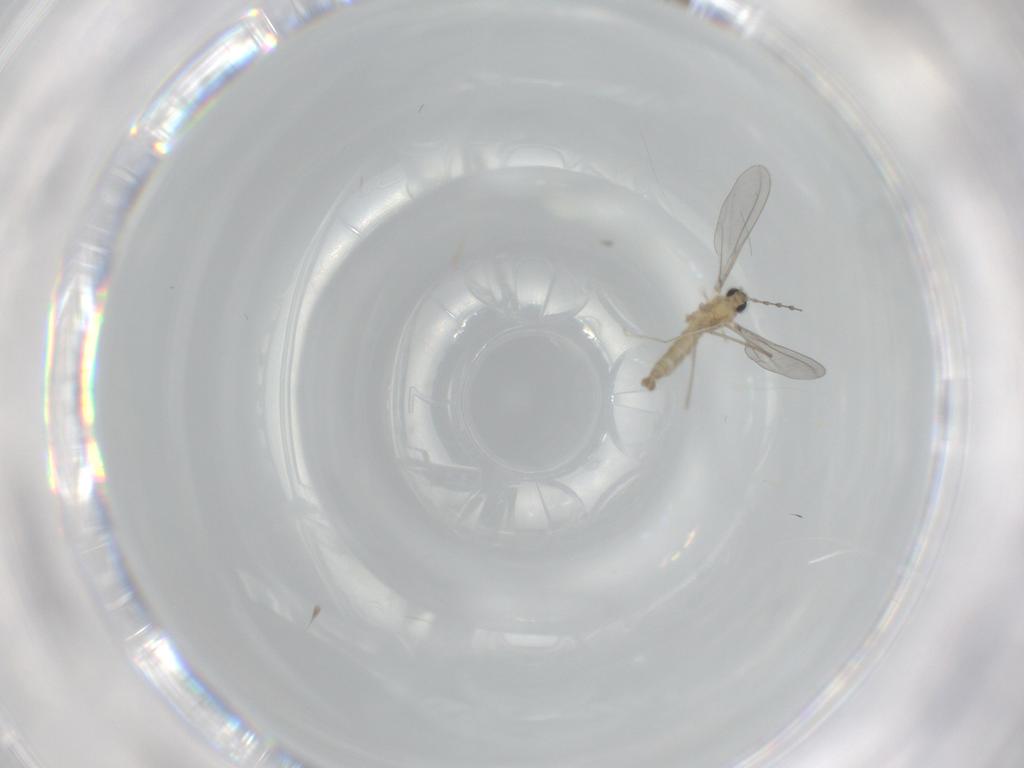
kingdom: Animalia
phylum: Arthropoda
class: Insecta
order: Diptera
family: Cecidomyiidae
